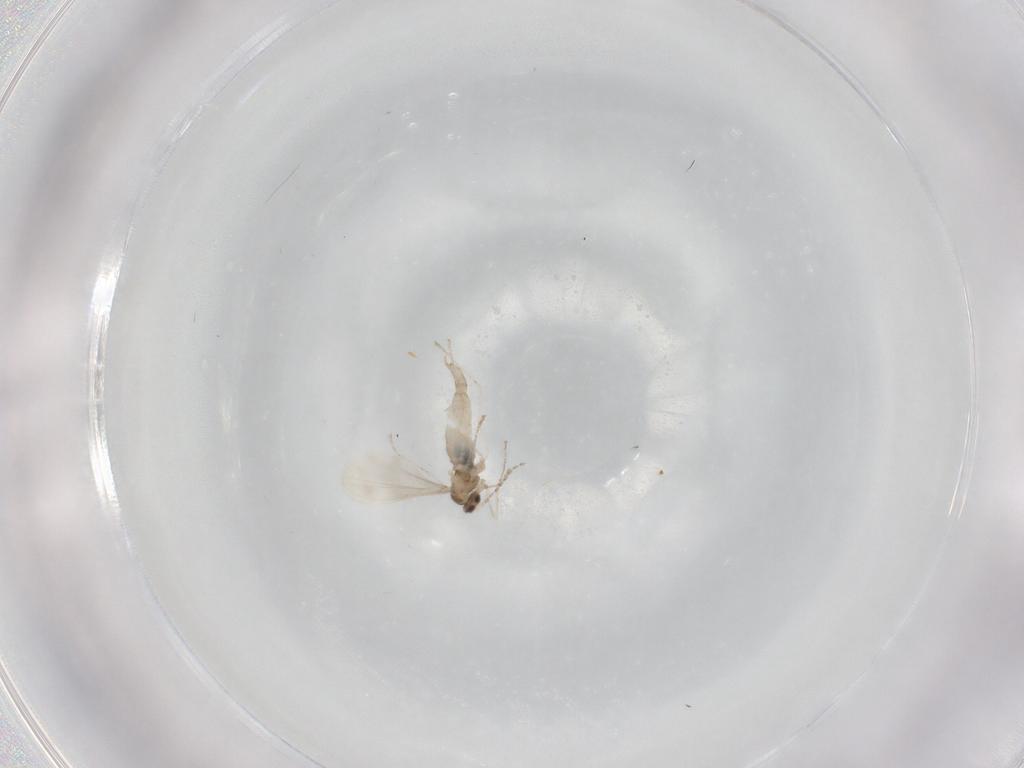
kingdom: Animalia
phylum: Arthropoda
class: Insecta
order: Diptera
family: Cecidomyiidae
